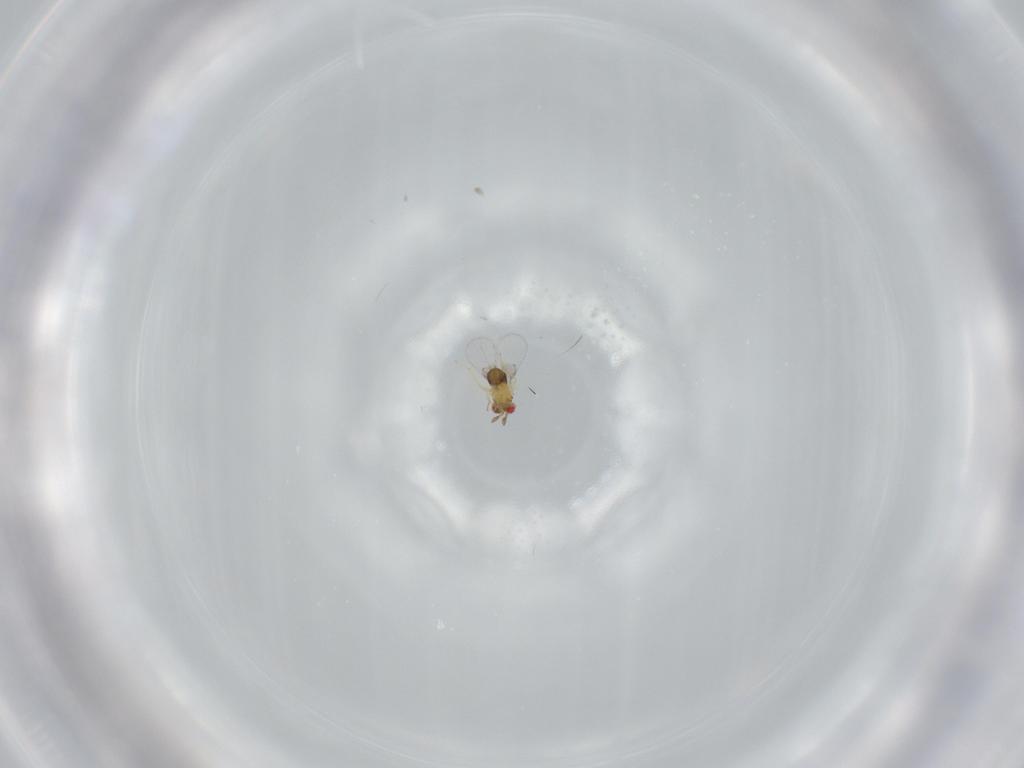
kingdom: Animalia
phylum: Arthropoda
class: Insecta
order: Hymenoptera
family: Trichogrammatidae
